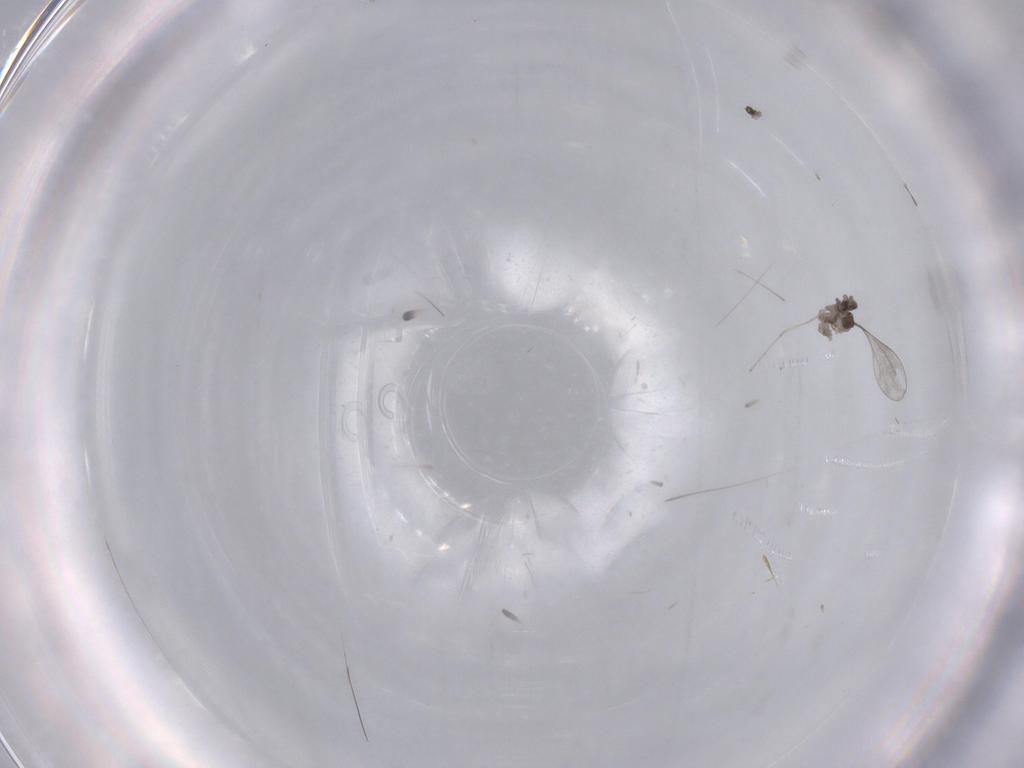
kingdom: Animalia
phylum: Arthropoda
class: Insecta
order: Diptera
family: Cecidomyiidae
